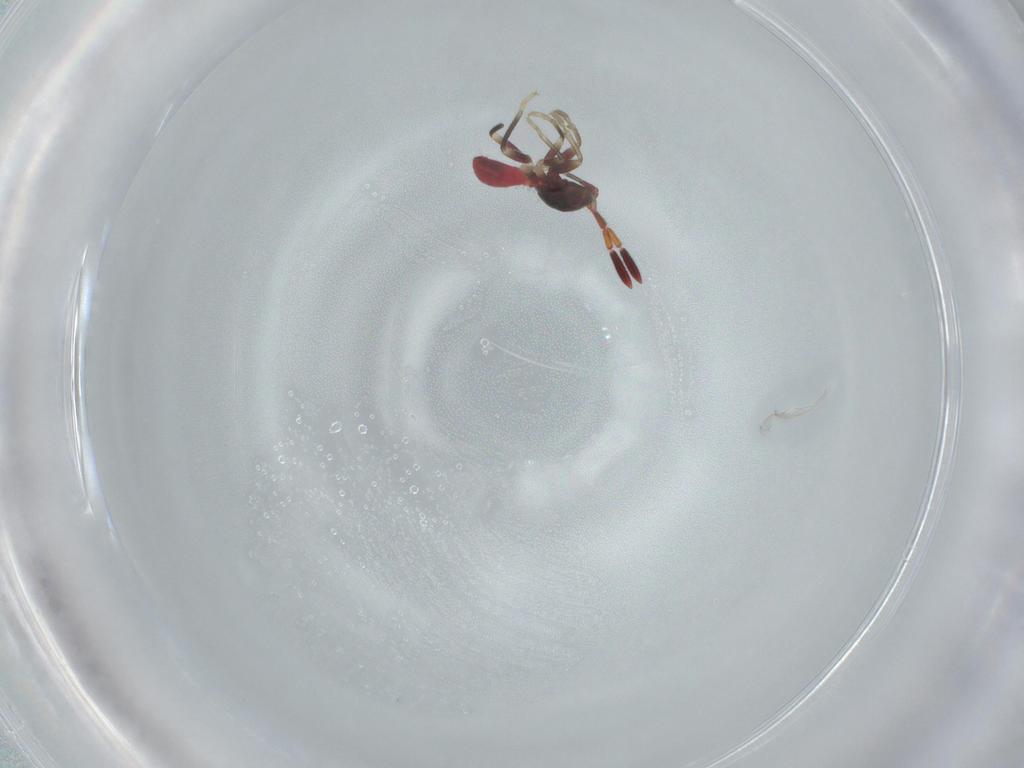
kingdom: Animalia
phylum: Arthropoda
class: Insecta
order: Hemiptera
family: Rhyparochromidae
